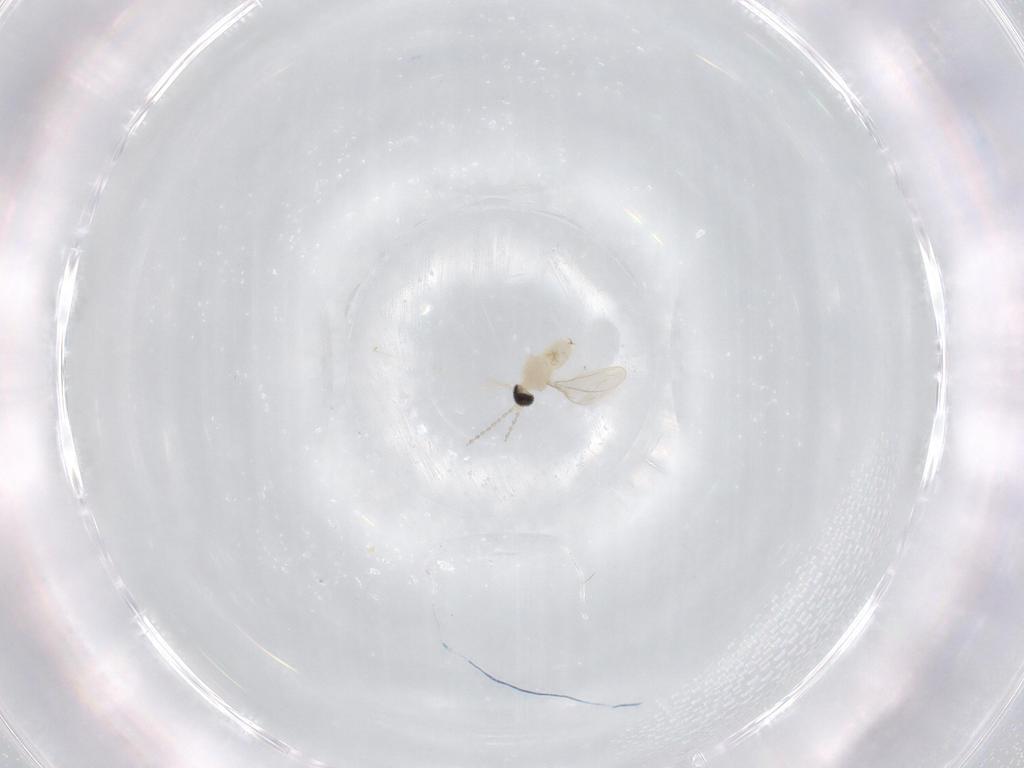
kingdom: Animalia
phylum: Arthropoda
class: Insecta
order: Diptera
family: Cecidomyiidae
